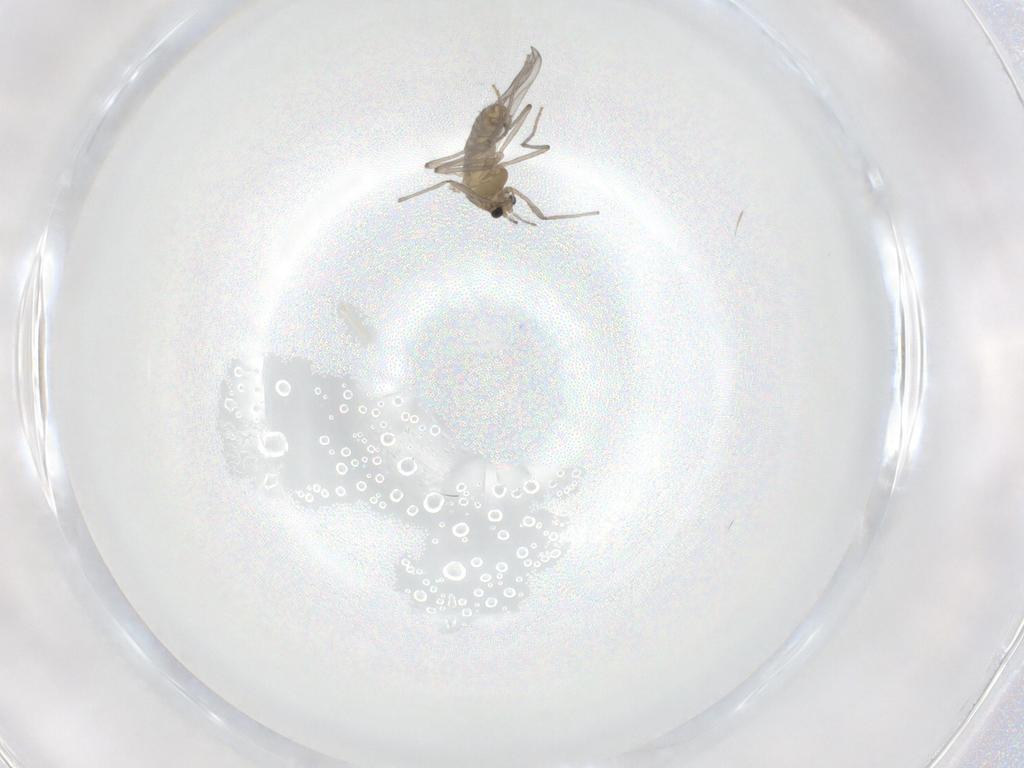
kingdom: Animalia
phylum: Arthropoda
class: Insecta
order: Diptera
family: Chironomidae
